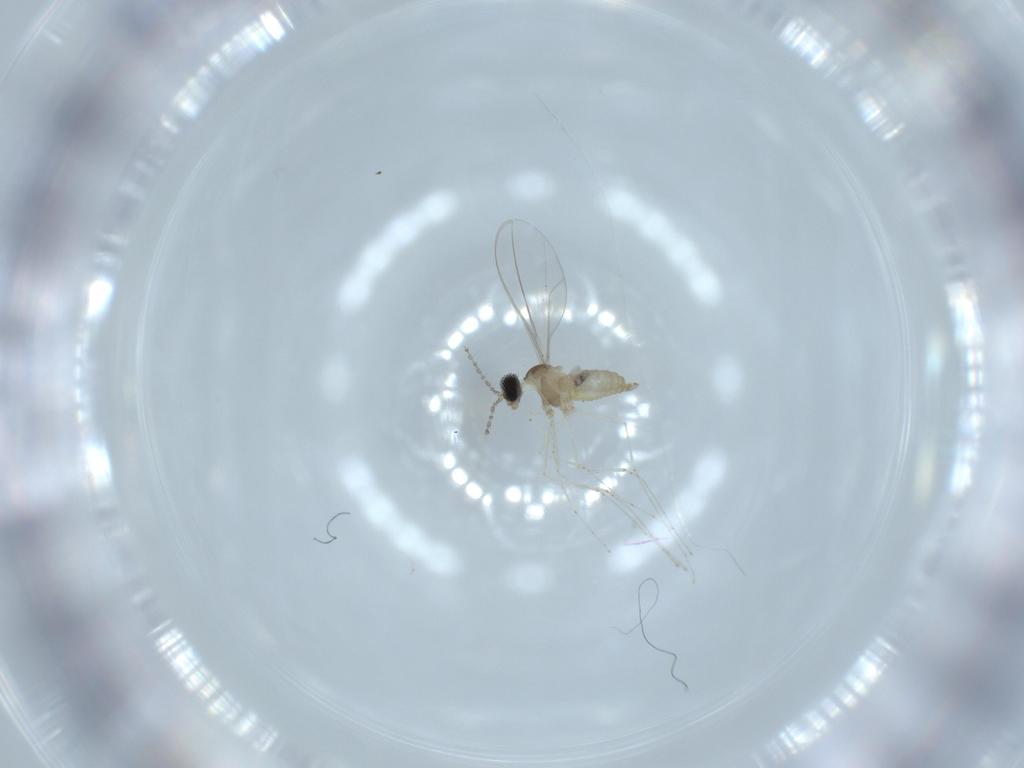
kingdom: Animalia
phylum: Arthropoda
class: Insecta
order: Diptera
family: Cecidomyiidae
